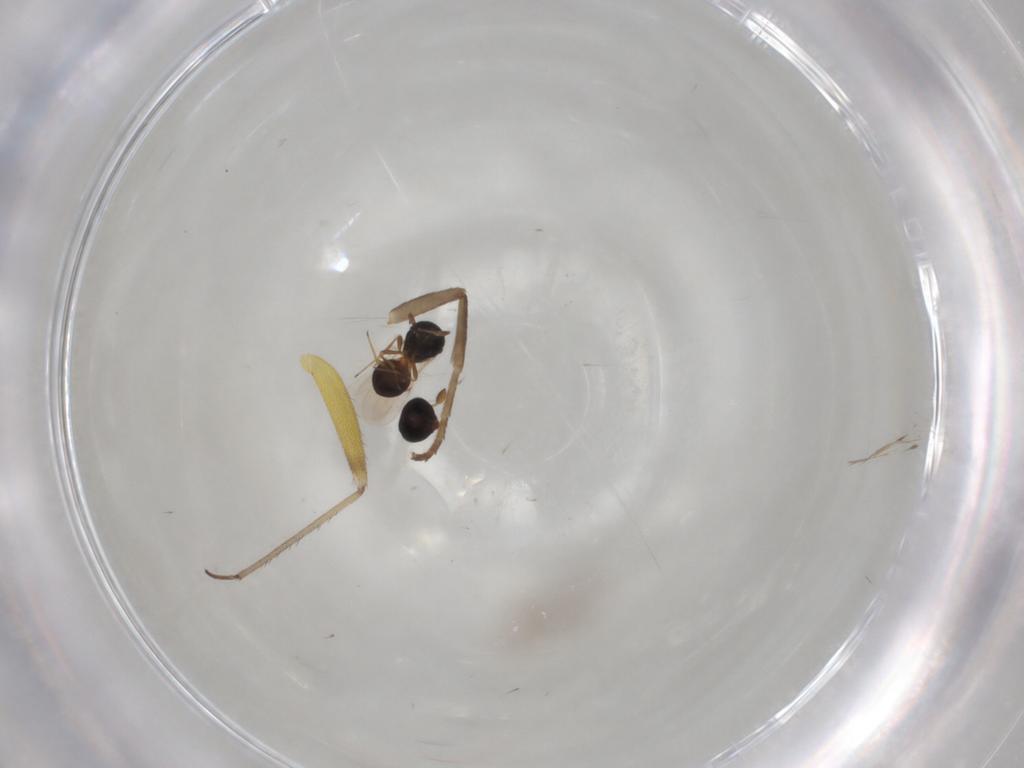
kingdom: Animalia
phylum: Arthropoda
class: Insecta
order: Hymenoptera
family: Scelionidae
